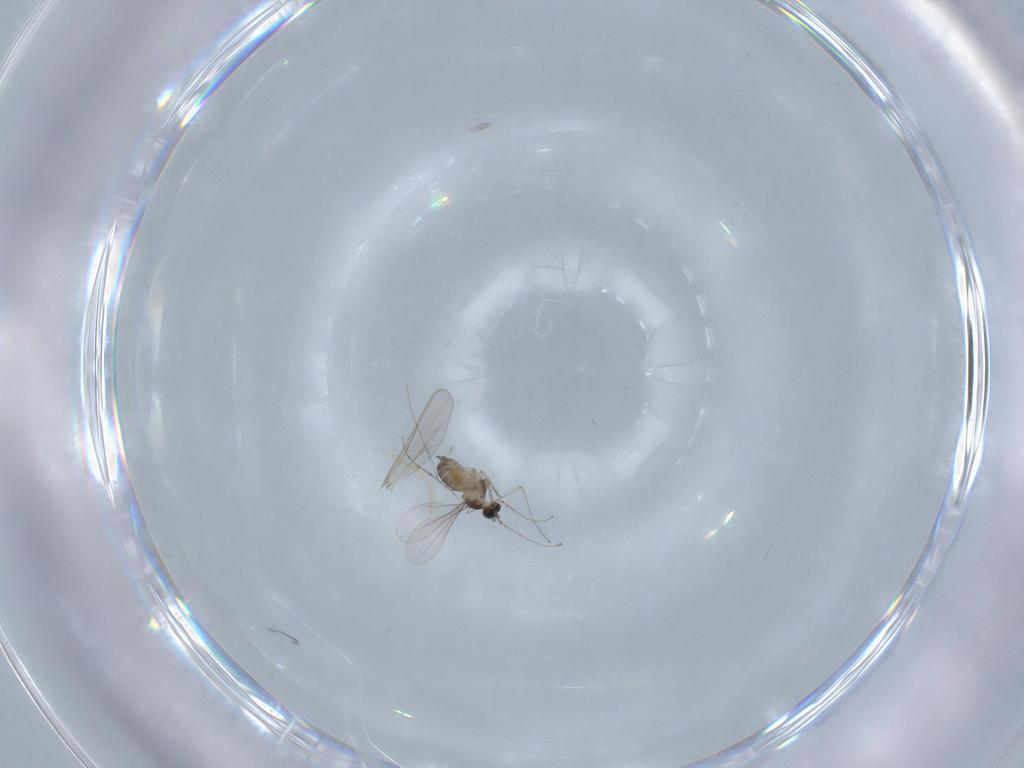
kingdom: Animalia
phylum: Arthropoda
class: Insecta
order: Diptera
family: Cecidomyiidae
